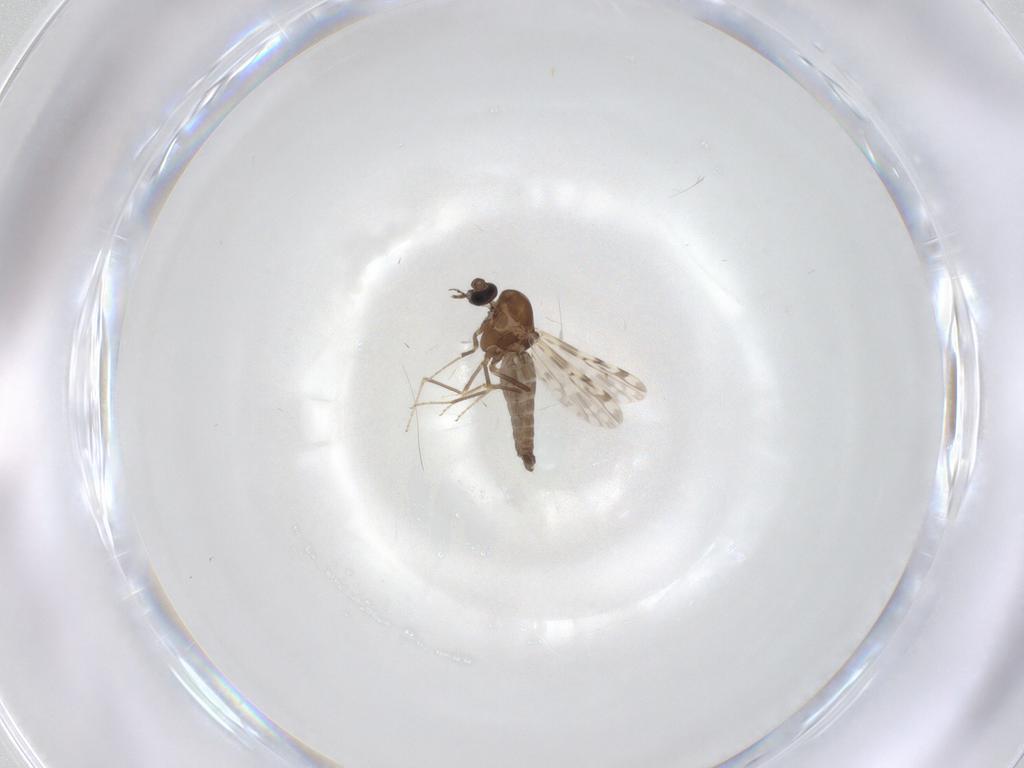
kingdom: Animalia
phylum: Arthropoda
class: Insecta
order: Diptera
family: Ceratopogonidae
